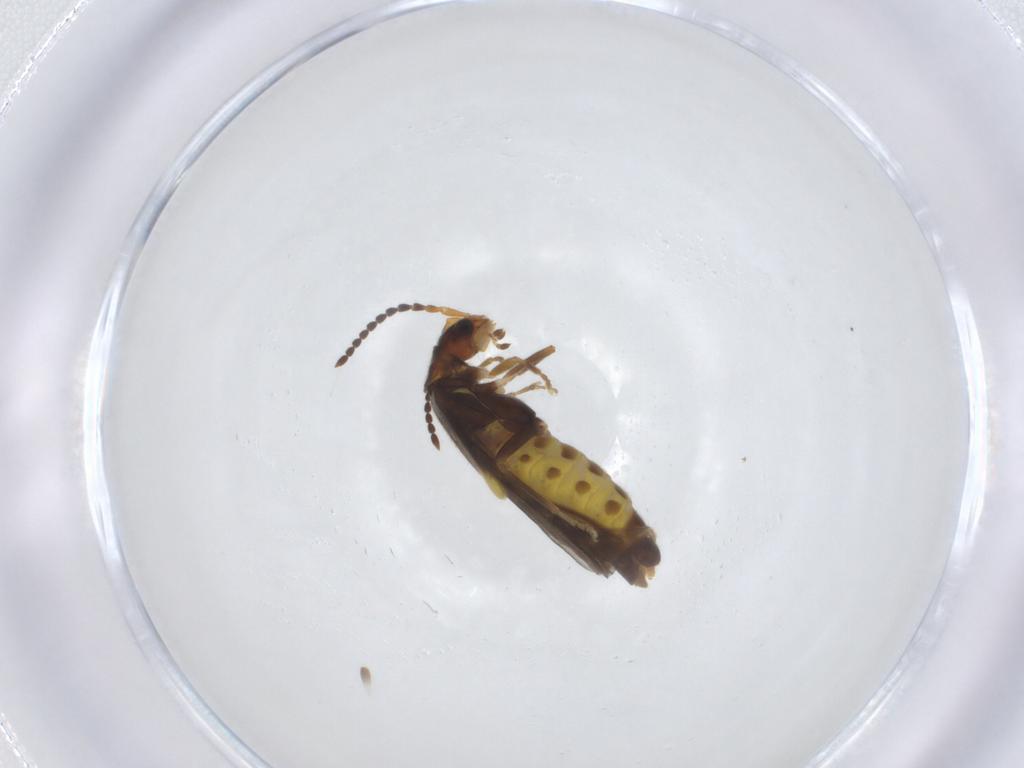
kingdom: Animalia
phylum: Arthropoda
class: Insecta
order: Coleoptera
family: Cantharidae
